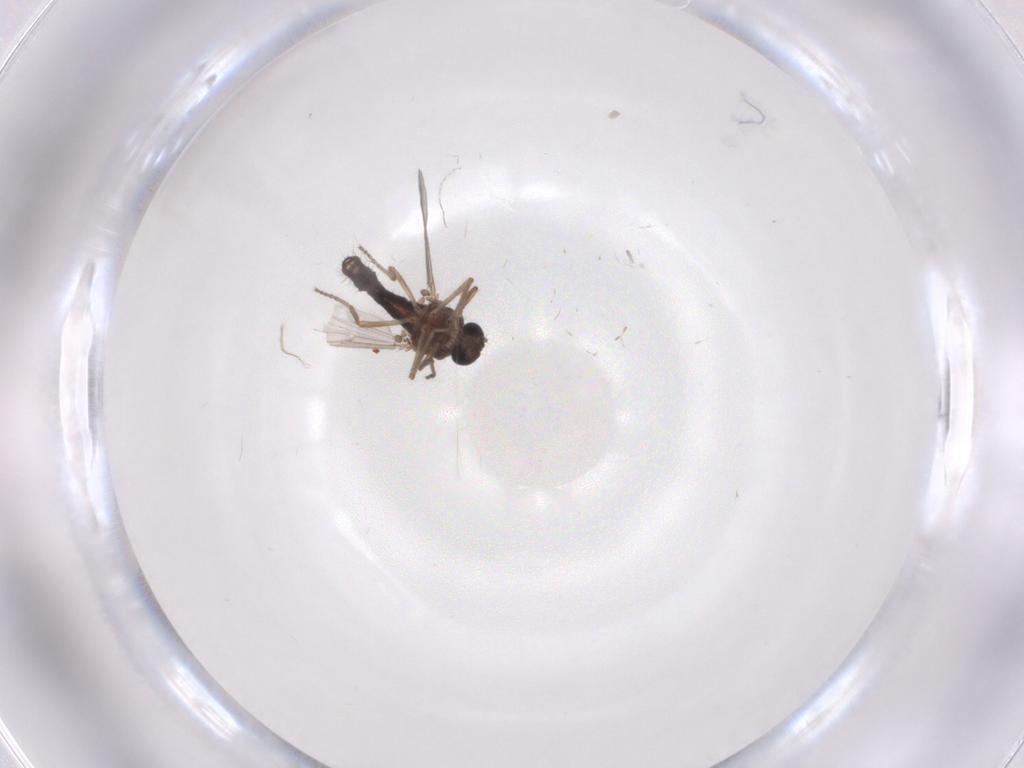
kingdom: Animalia
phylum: Arthropoda
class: Insecta
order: Diptera
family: Ceratopogonidae
